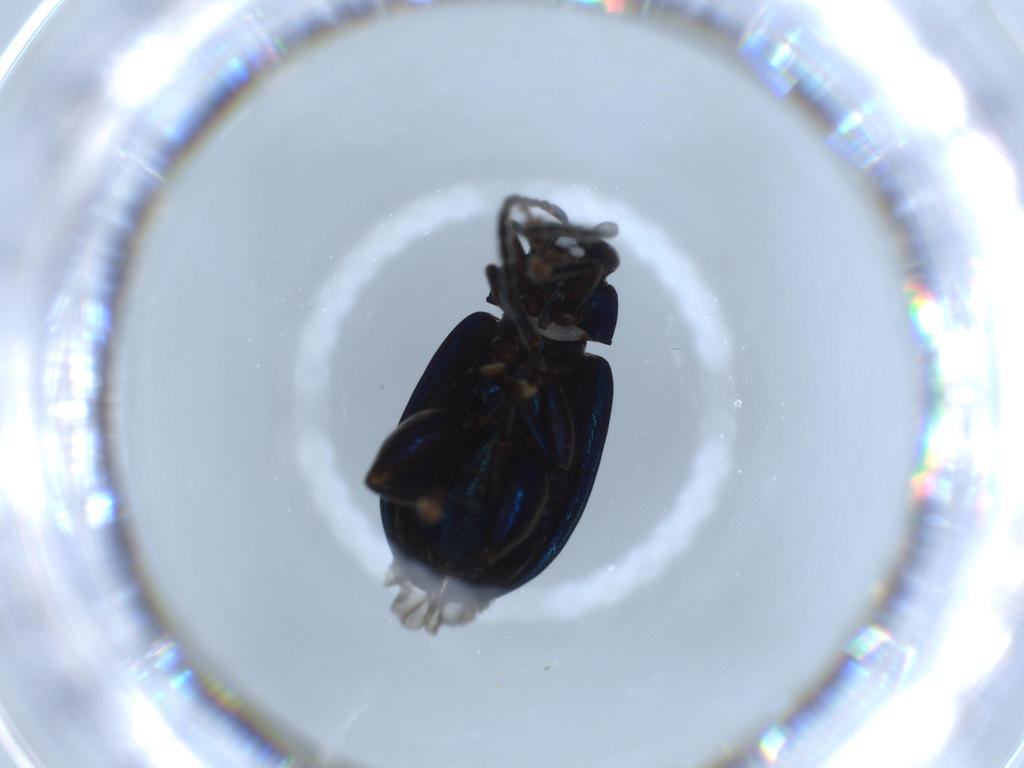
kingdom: Animalia
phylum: Arthropoda
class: Insecta
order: Coleoptera
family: Chrysomelidae
